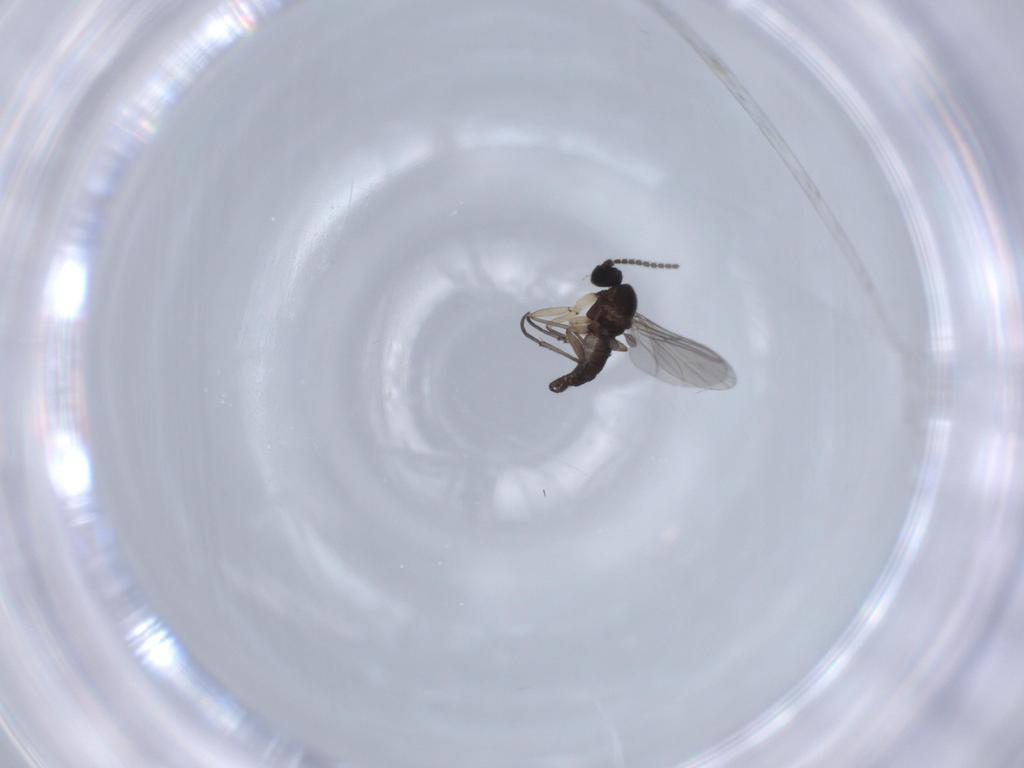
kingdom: Animalia
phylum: Arthropoda
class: Insecta
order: Diptera
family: Sciaridae
